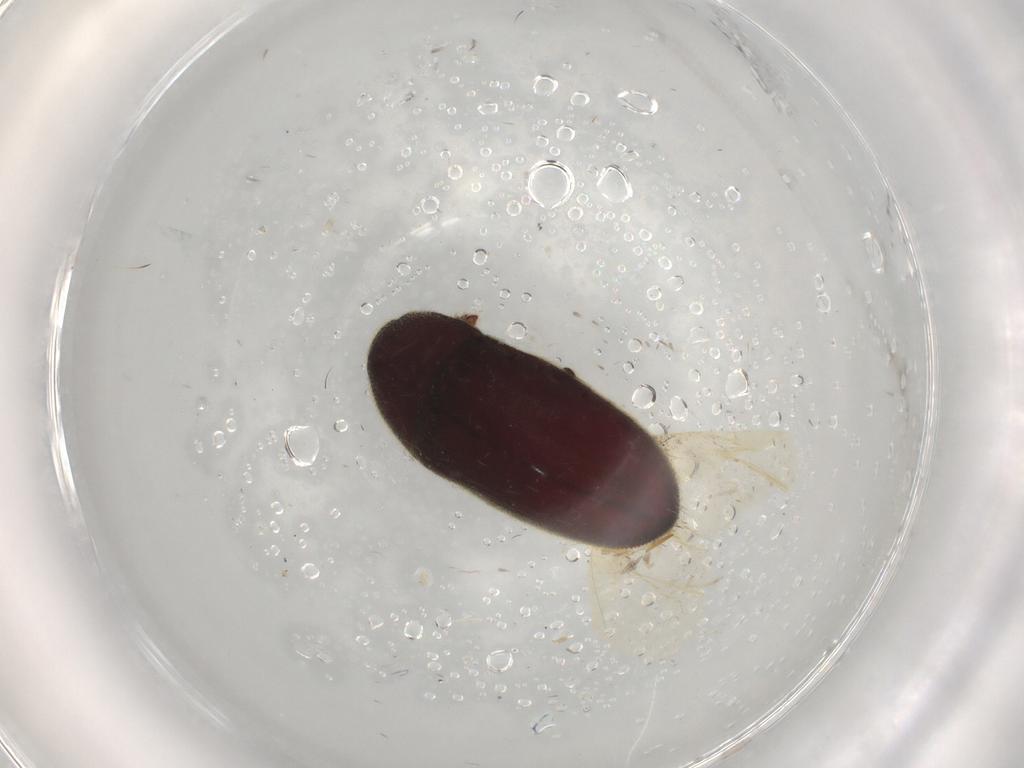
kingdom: Animalia
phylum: Arthropoda
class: Insecta
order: Coleoptera
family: Throscidae
